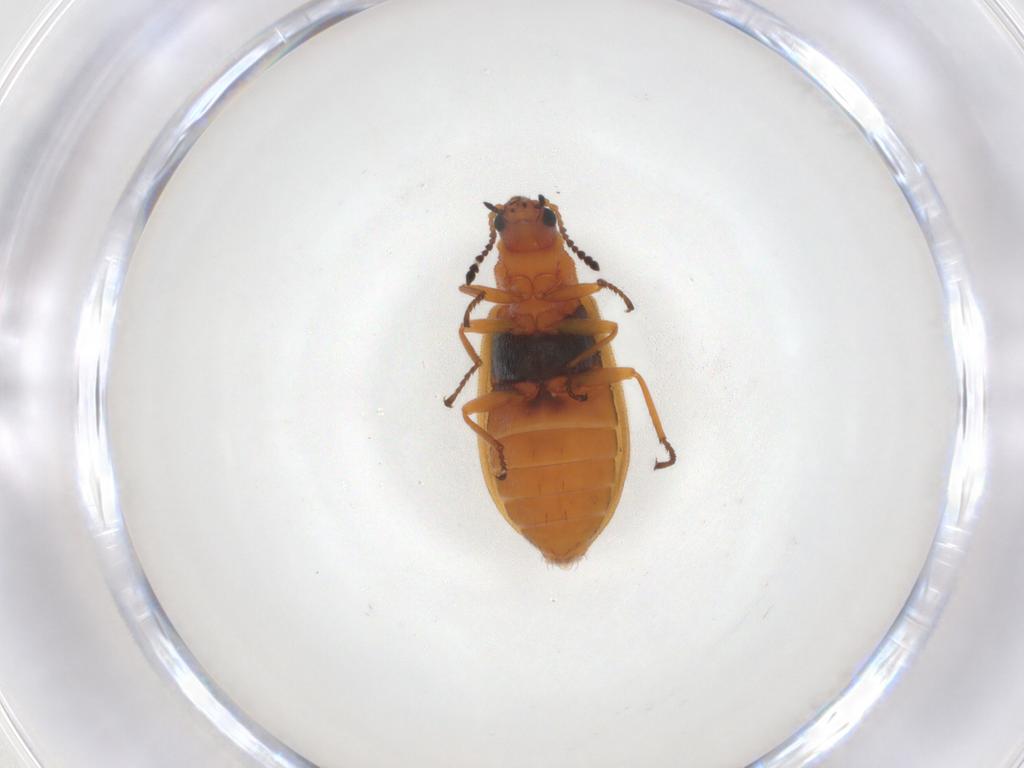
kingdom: Animalia
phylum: Arthropoda
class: Insecta
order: Coleoptera
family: Melyridae
